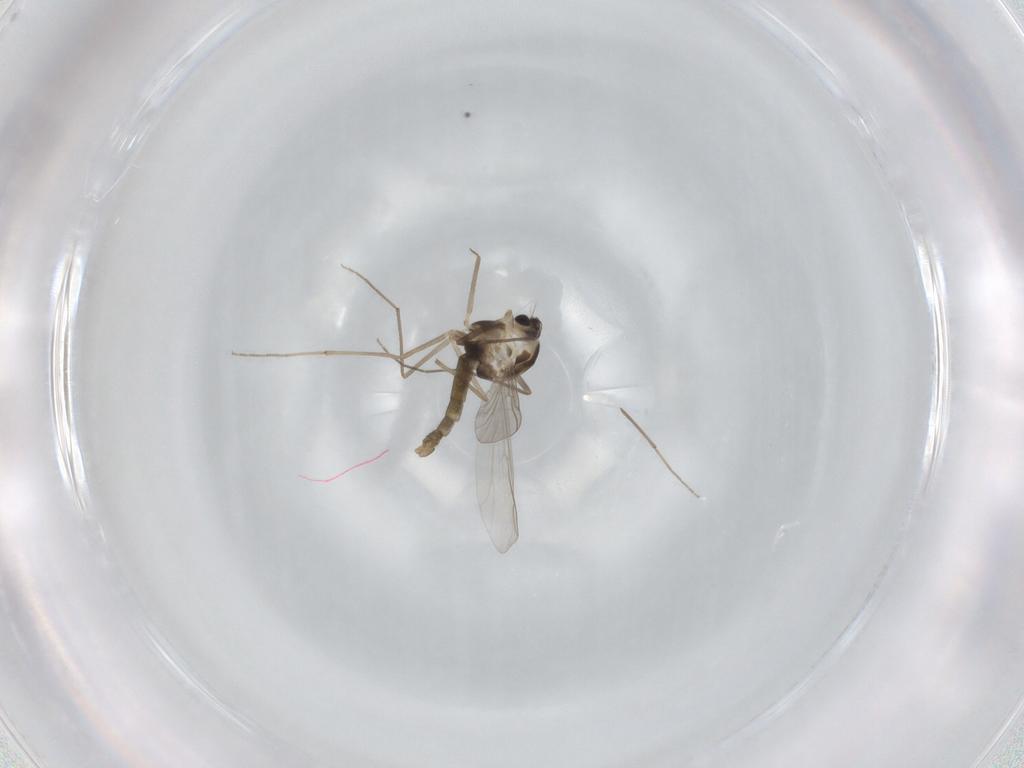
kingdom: Animalia
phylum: Arthropoda
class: Insecta
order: Diptera
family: Chironomidae
